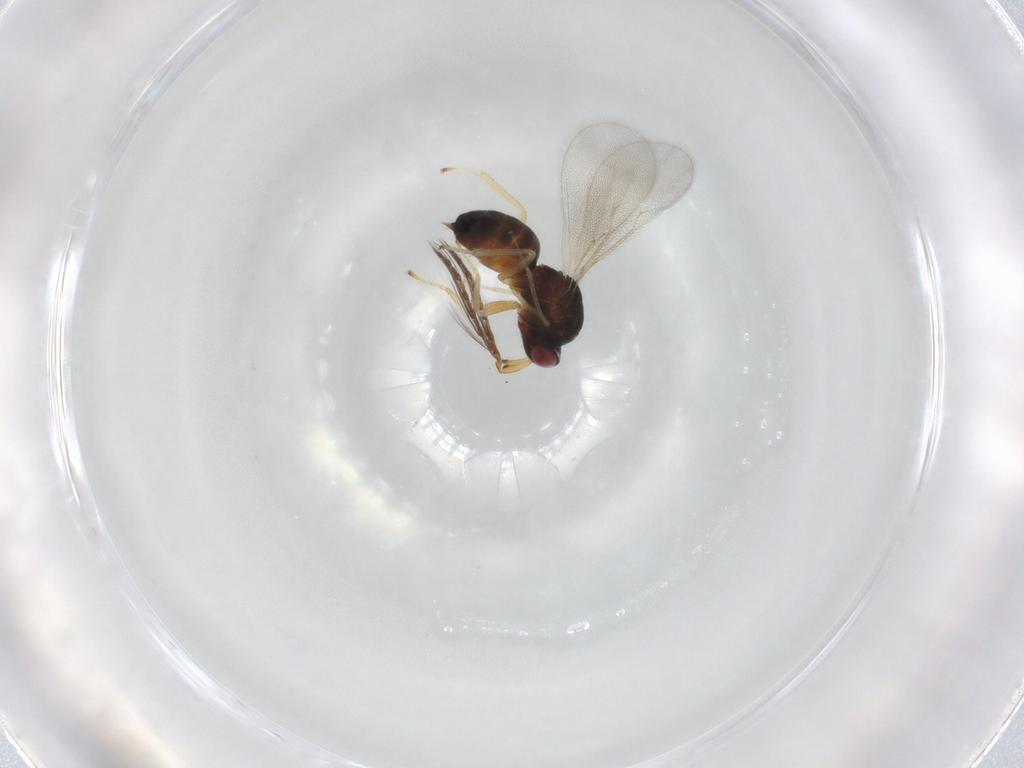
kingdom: Animalia
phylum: Arthropoda
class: Insecta
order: Hymenoptera
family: Eulophidae
